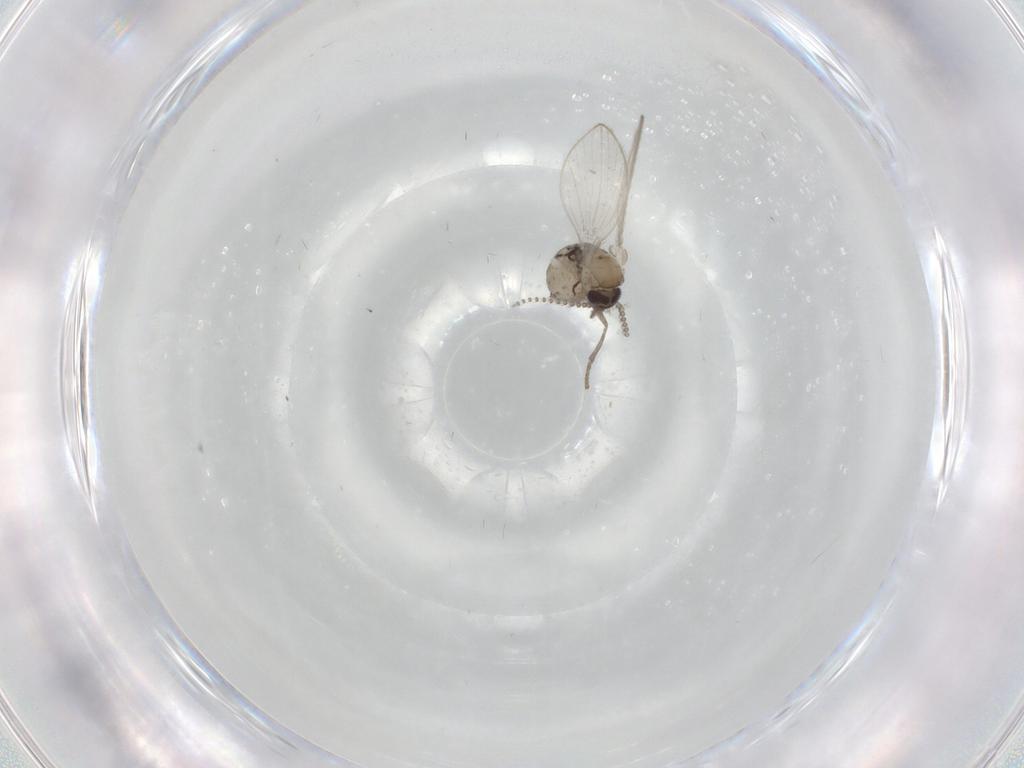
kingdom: Animalia
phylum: Arthropoda
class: Insecta
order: Diptera
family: Psychodidae
